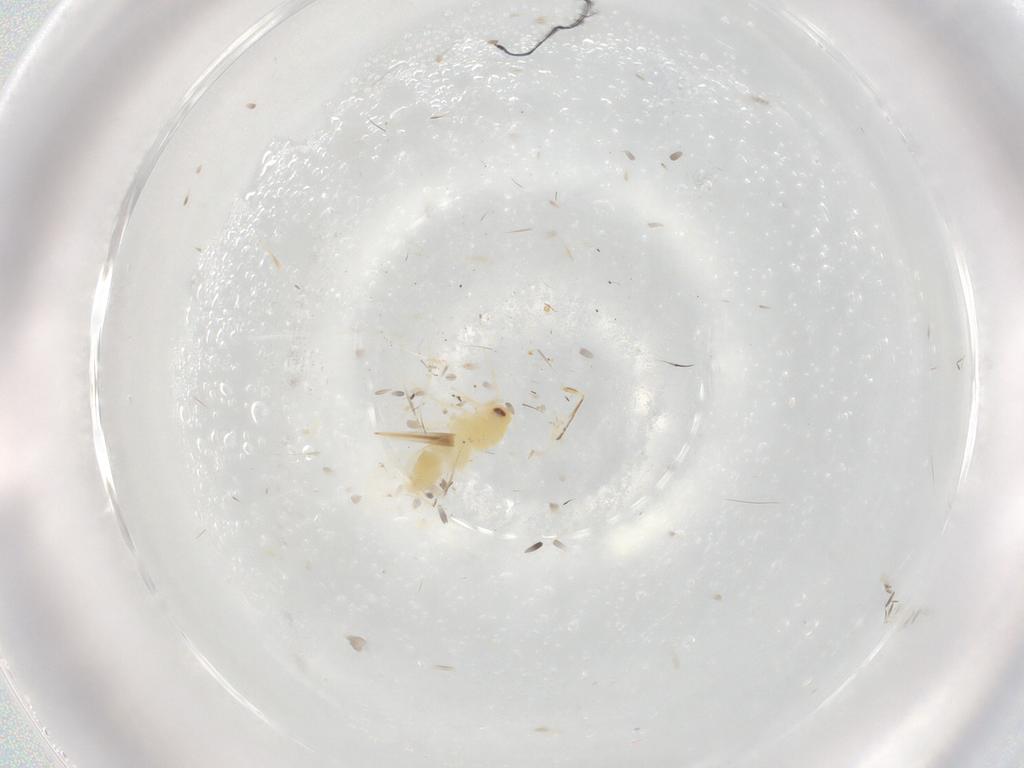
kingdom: Animalia
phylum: Arthropoda
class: Insecta
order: Hemiptera
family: Aleyrodidae
